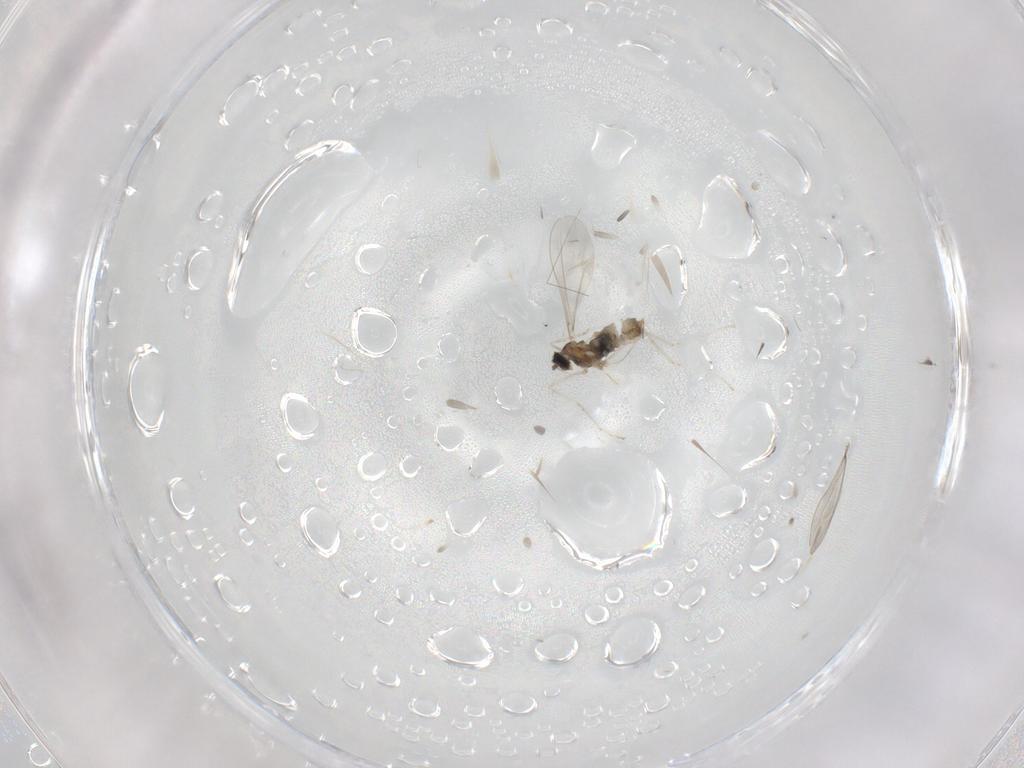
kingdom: Animalia
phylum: Arthropoda
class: Insecta
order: Diptera
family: Cecidomyiidae
